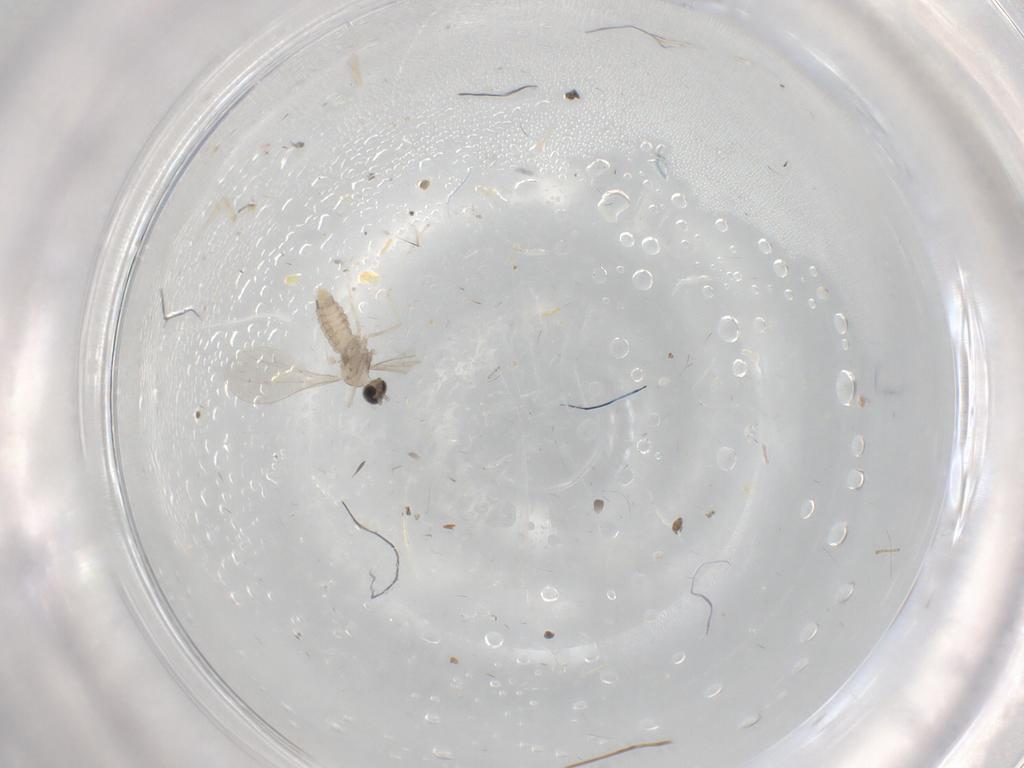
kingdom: Animalia
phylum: Arthropoda
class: Insecta
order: Diptera
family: Cecidomyiidae
